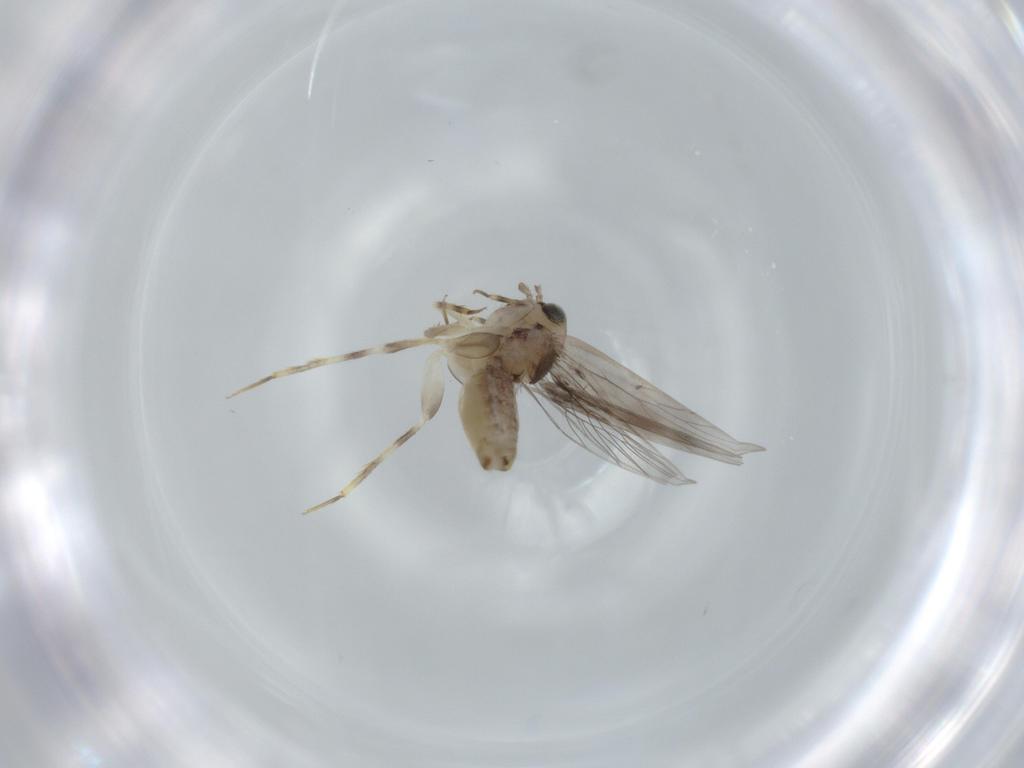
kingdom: Animalia
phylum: Arthropoda
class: Insecta
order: Psocodea
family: Lepidopsocidae
